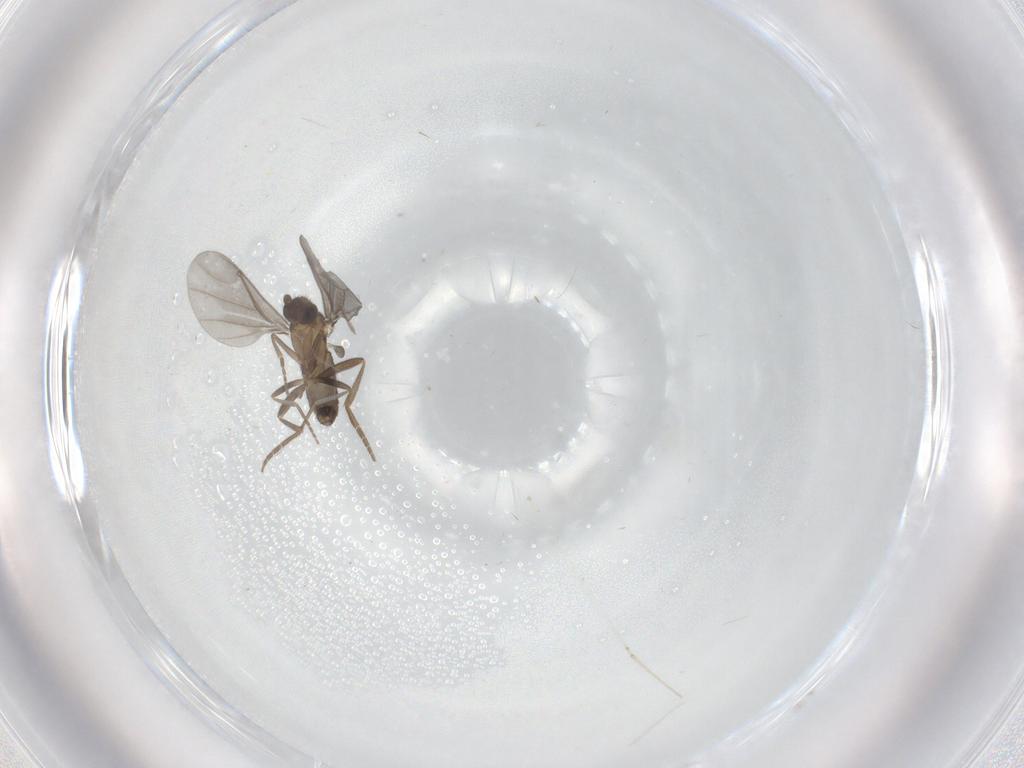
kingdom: Animalia
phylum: Arthropoda
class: Insecta
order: Diptera
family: Phoridae
